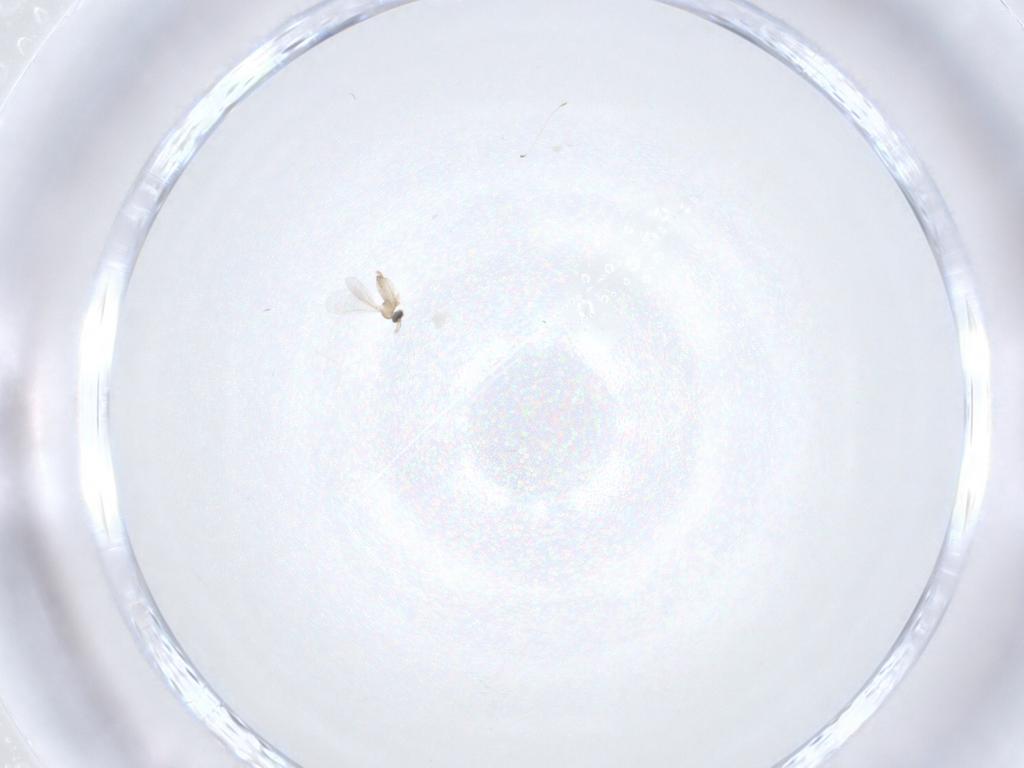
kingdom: Animalia
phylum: Arthropoda
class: Insecta
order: Diptera
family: Cecidomyiidae
